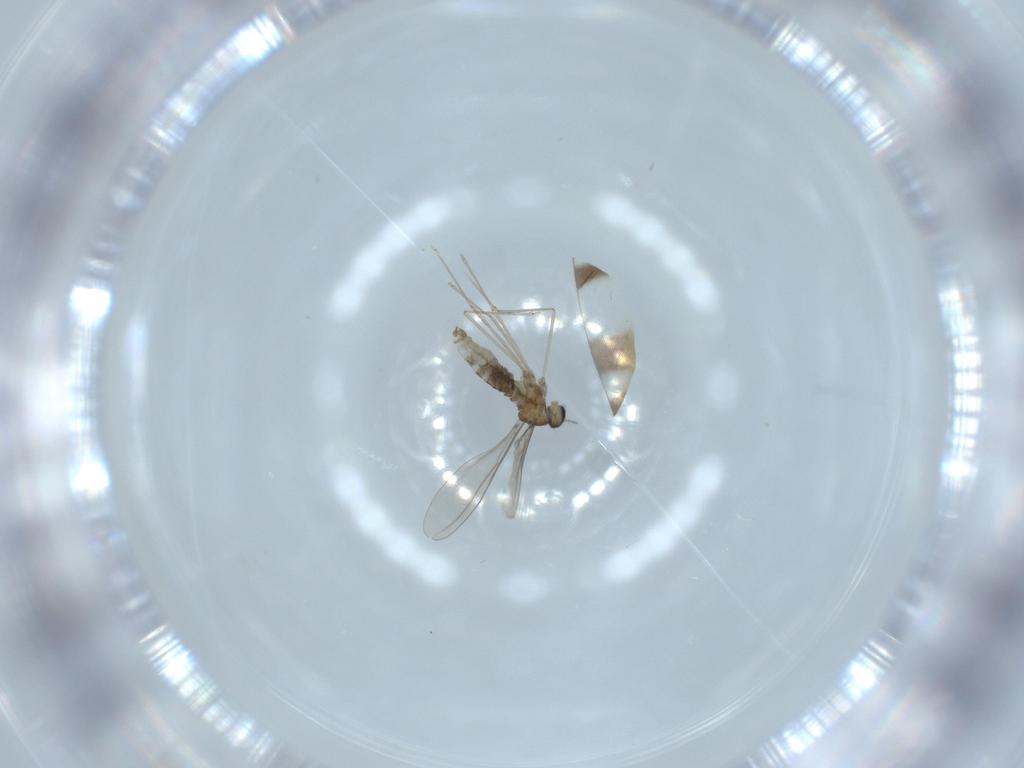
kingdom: Animalia
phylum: Arthropoda
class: Insecta
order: Diptera
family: Cecidomyiidae
